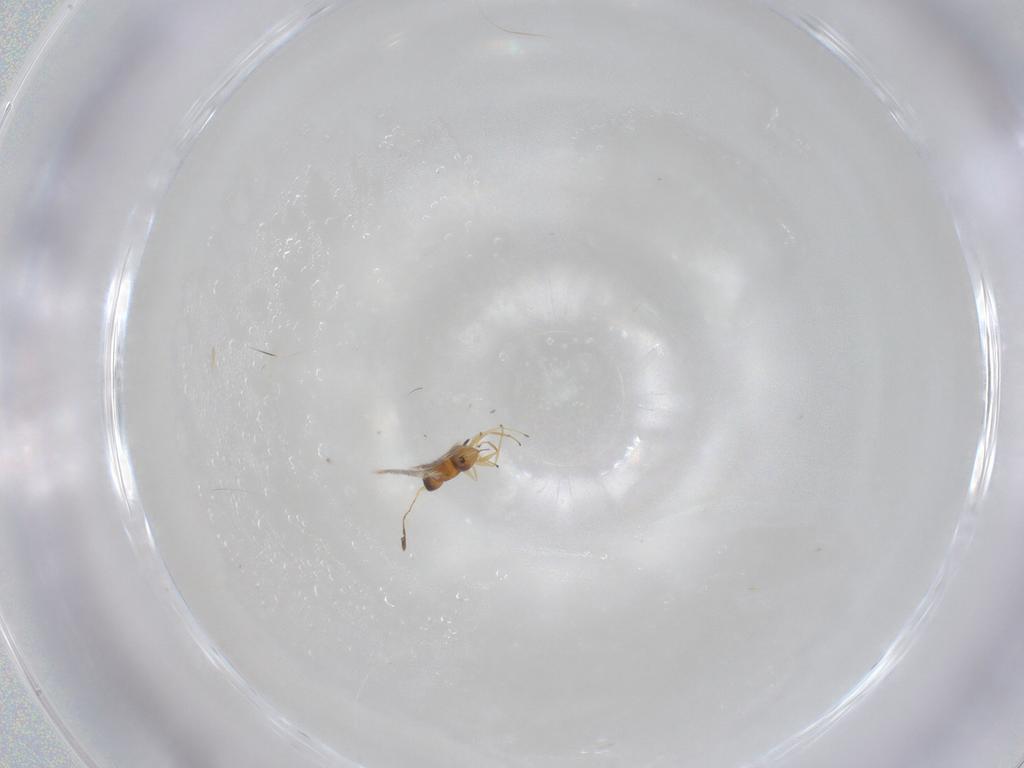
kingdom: Animalia
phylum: Arthropoda
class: Insecta
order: Hymenoptera
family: Mymaridae
